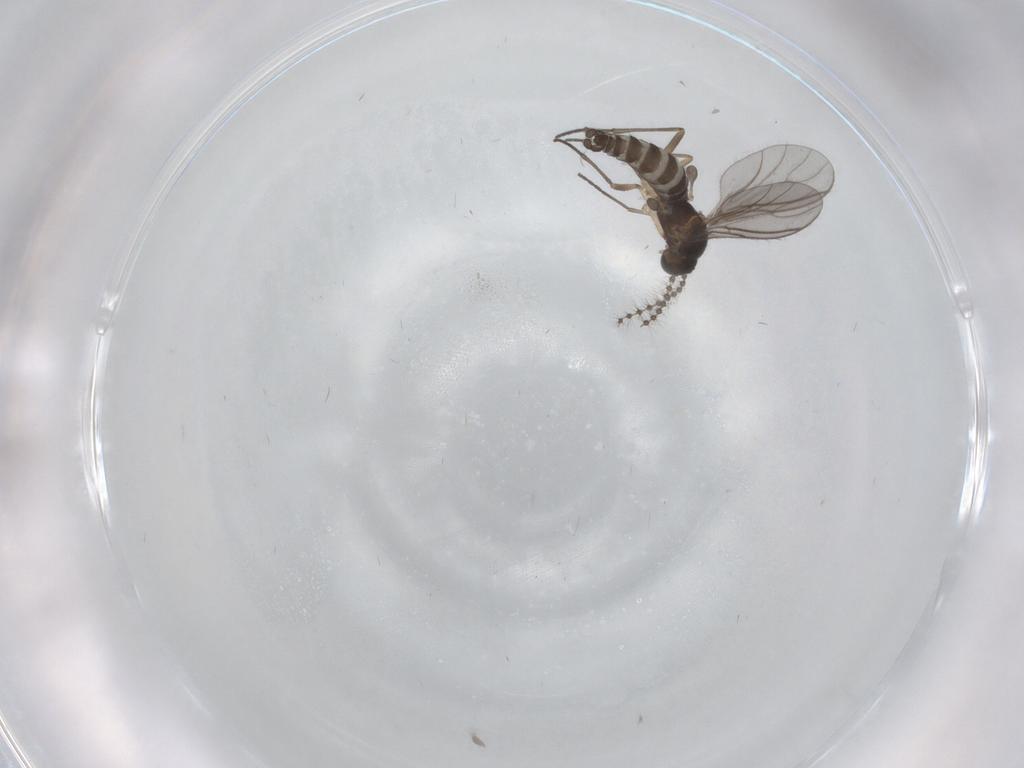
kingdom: Animalia
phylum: Arthropoda
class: Insecta
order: Diptera
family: Sciaridae
